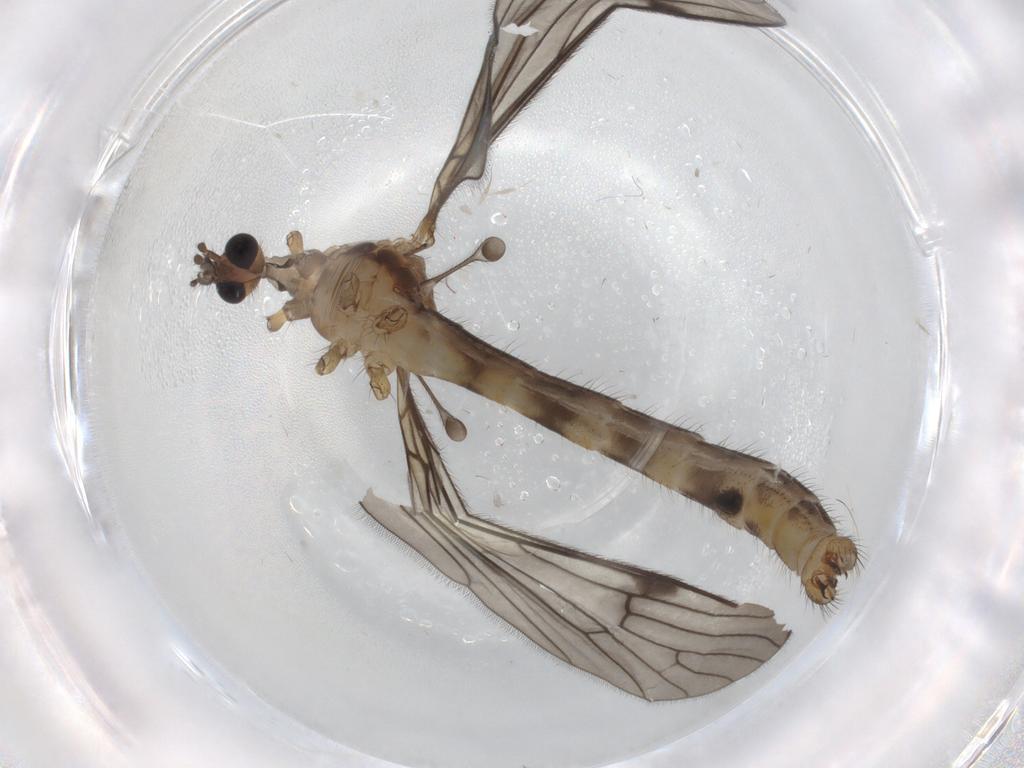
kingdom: Animalia
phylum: Arthropoda
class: Insecta
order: Diptera
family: Limoniidae
